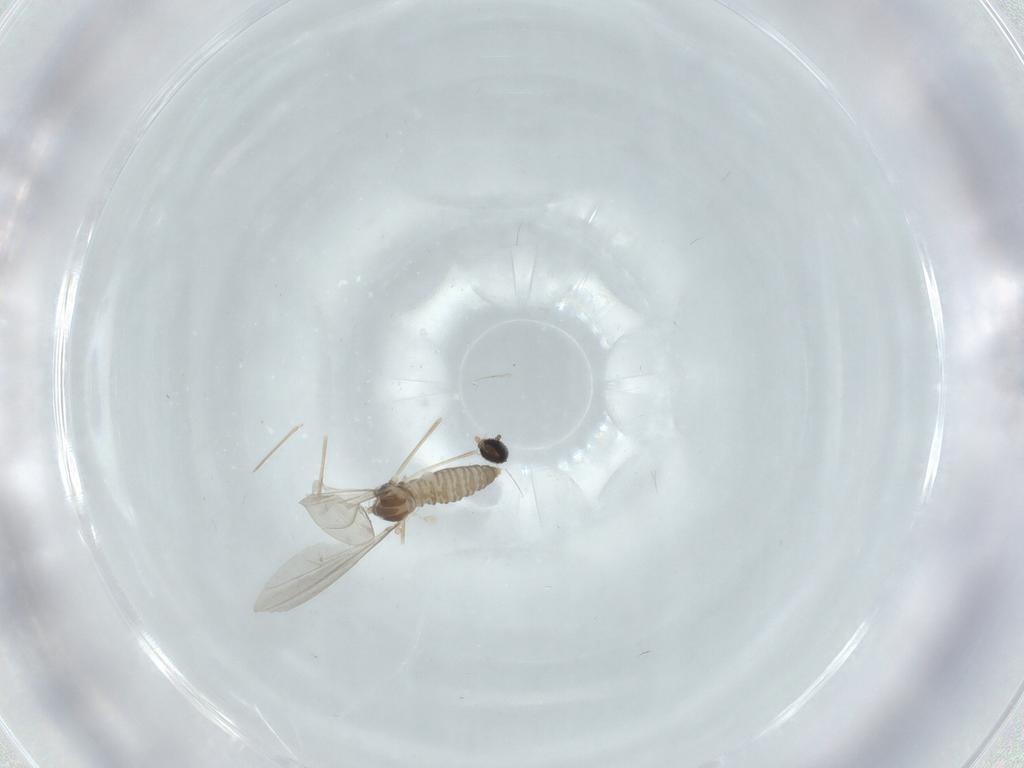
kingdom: Animalia
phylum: Arthropoda
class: Insecta
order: Diptera
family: Cecidomyiidae
